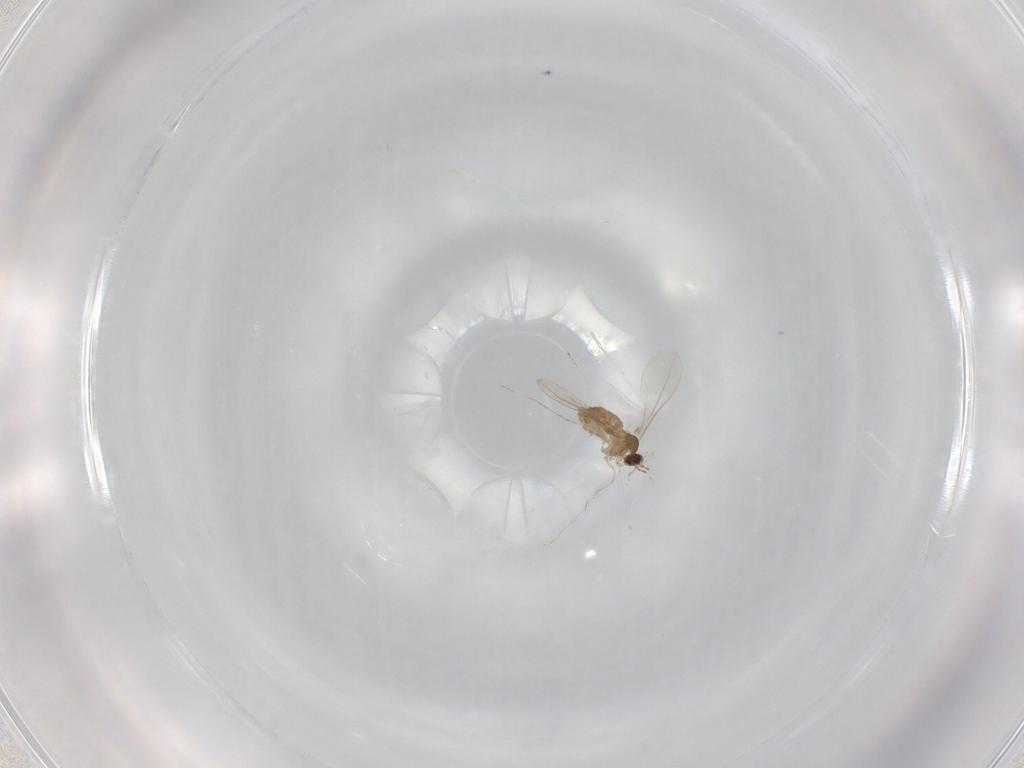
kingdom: Animalia
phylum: Arthropoda
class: Insecta
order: Diptera
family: Cecidomyiidae
